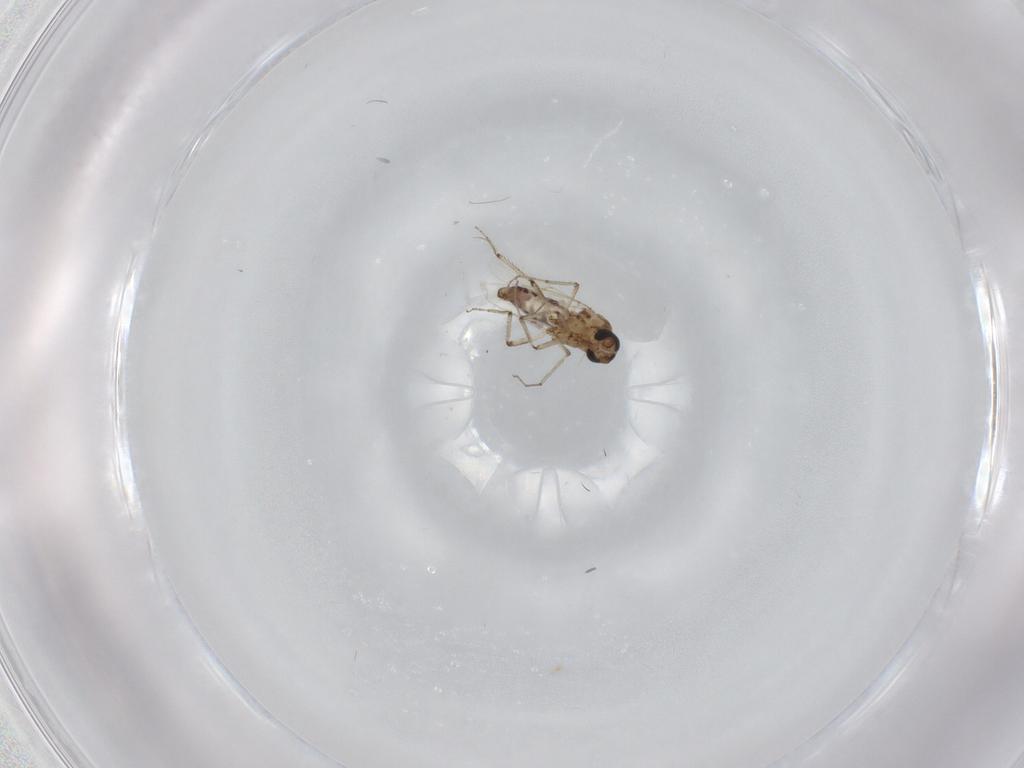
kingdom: Animalia
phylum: Arthropoda
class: Insecta
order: Diptera
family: Ceratopogonidae
